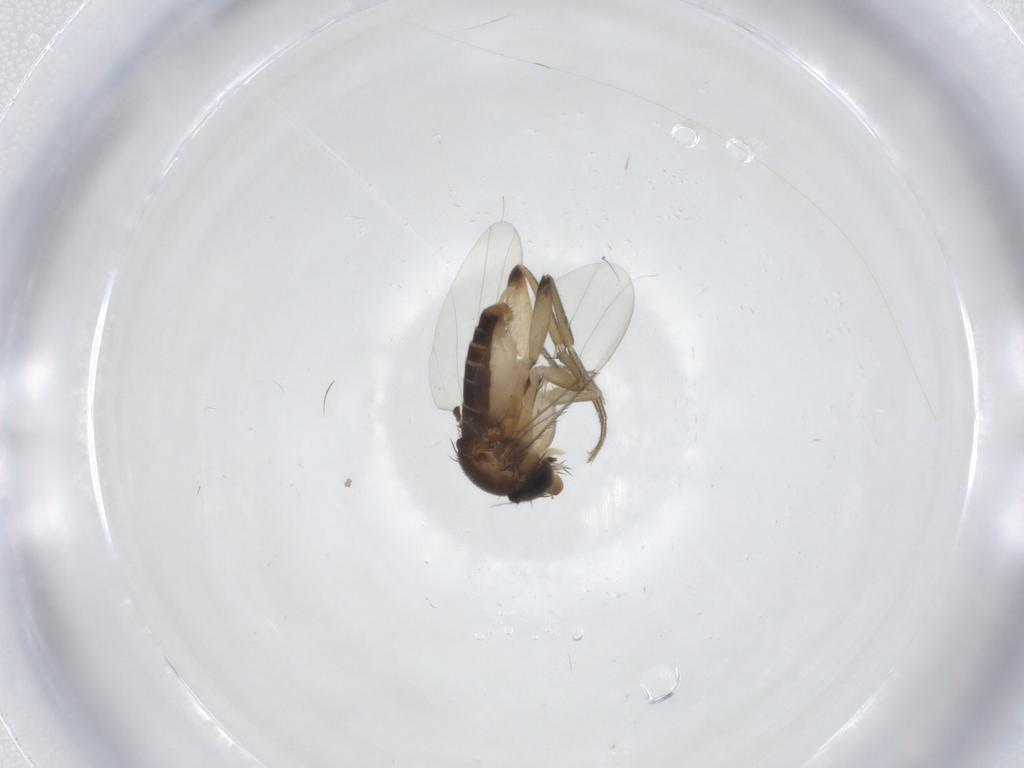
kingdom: Animalia
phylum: Arthropoda
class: Insecta
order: Diptera
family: Phoridae
